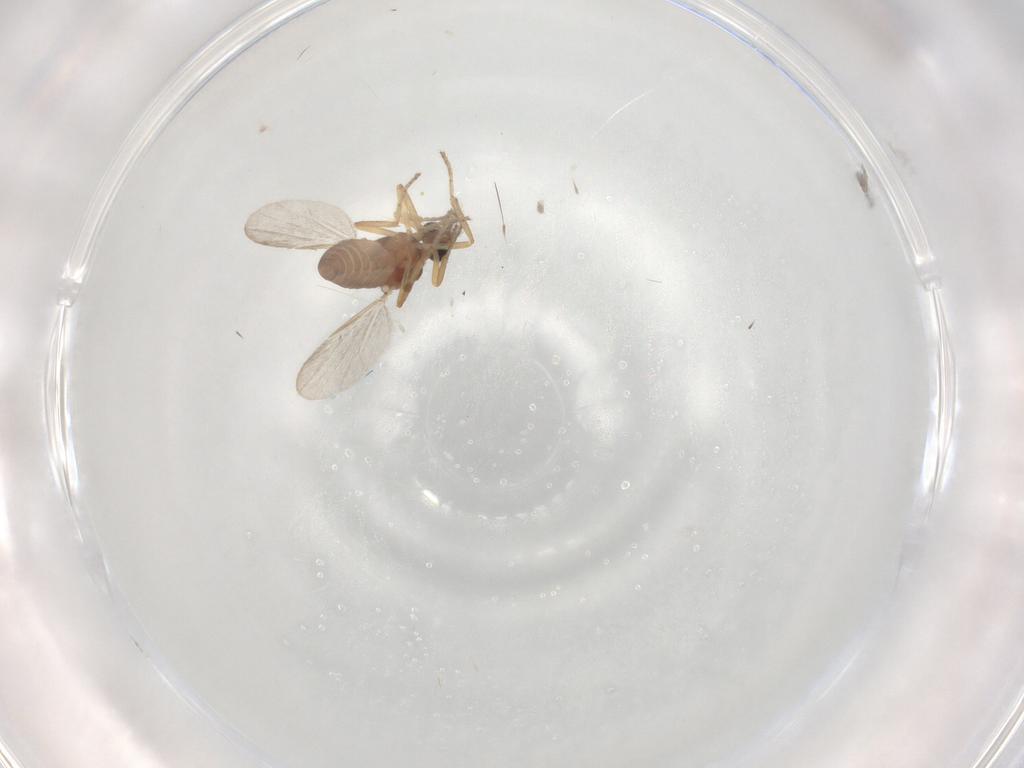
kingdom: Animalia
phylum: Arthropoda
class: Insecta
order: Diptera
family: Ceratopogonidae
